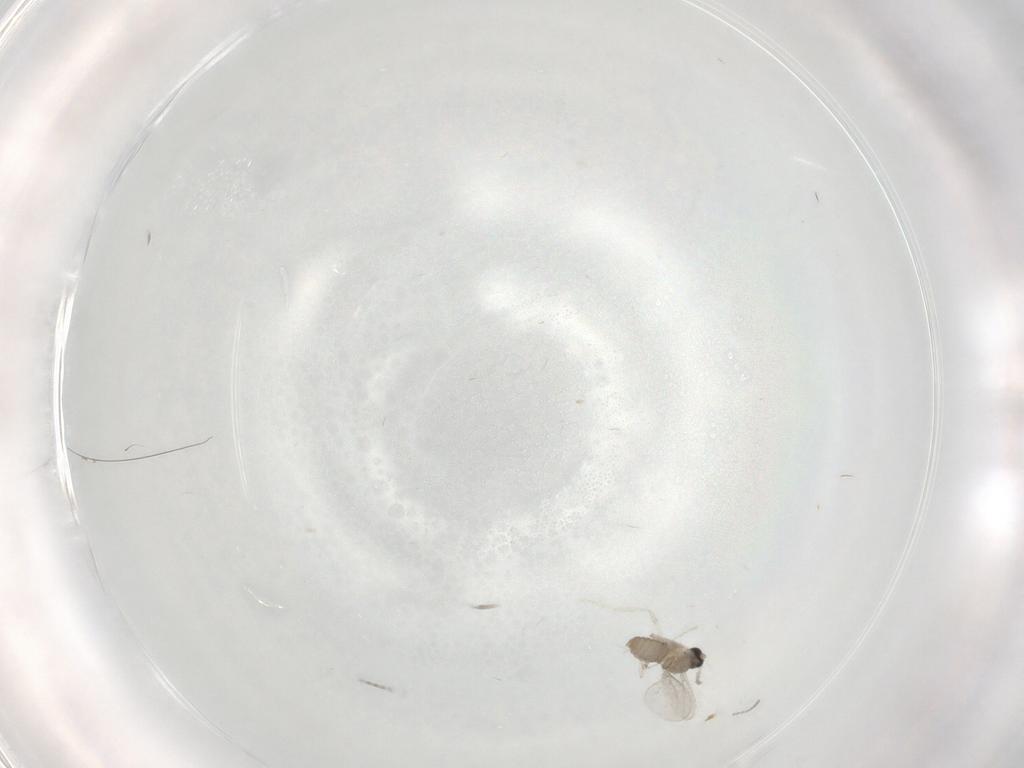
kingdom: Animalia
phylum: Arthropoda
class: Insecta
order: Diptera
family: Cecidomyiidae
